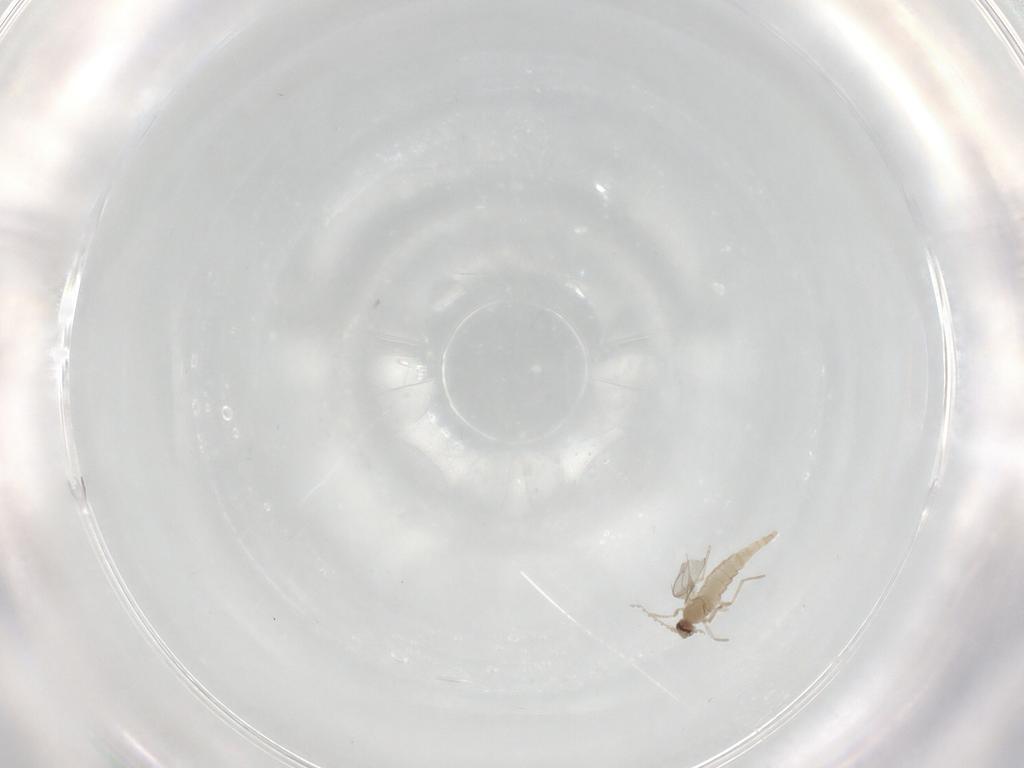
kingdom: Animalia
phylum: Arthropoda
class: Insecta
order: Diptera
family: Cecidomyiidae
